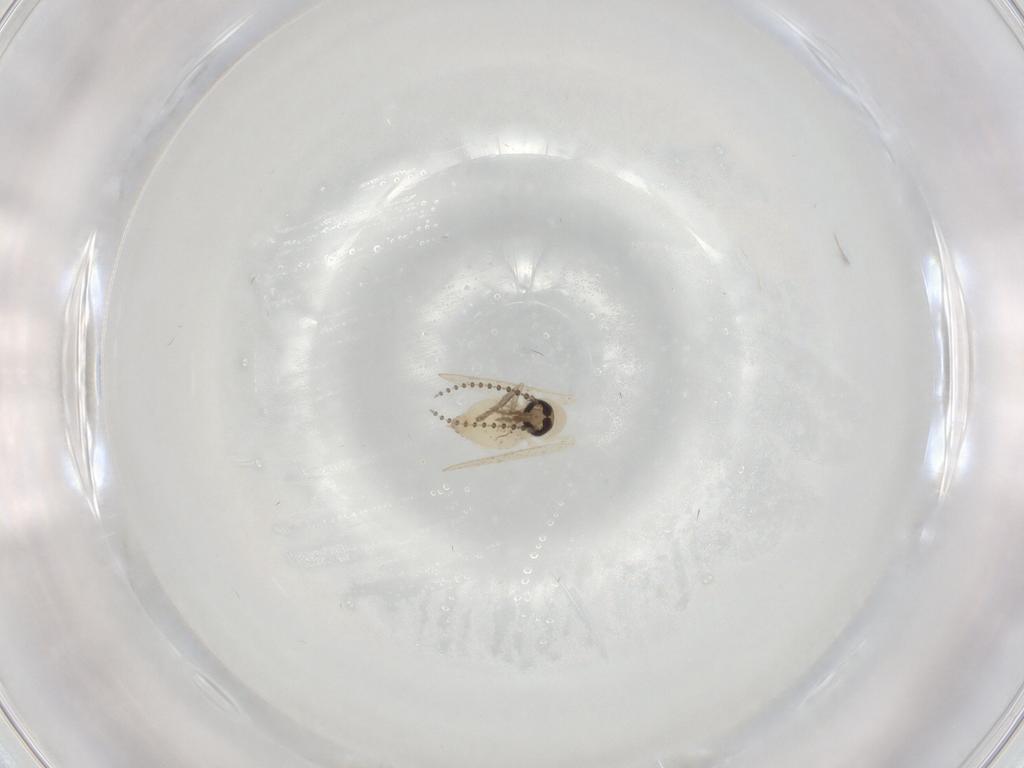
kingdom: Animalia
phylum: Arthropoda
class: Insecta
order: Diptera
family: Psychodidae
